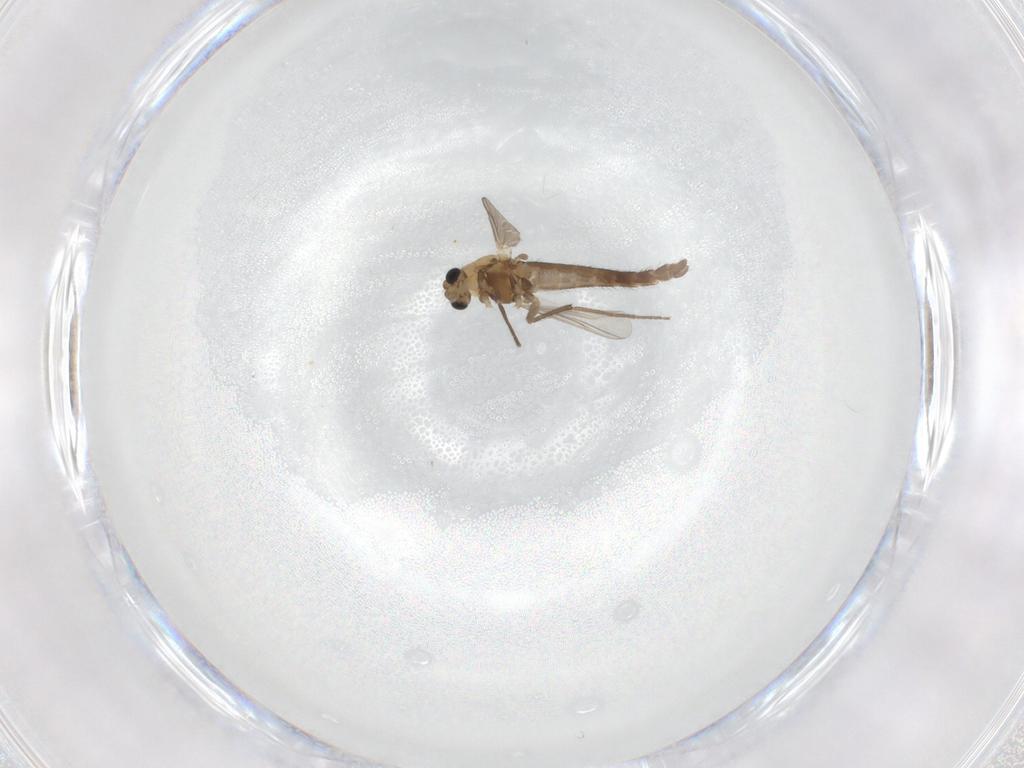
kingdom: Animalia
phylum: Arthropoda
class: Insecta
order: Diptera
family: Chironomidae
